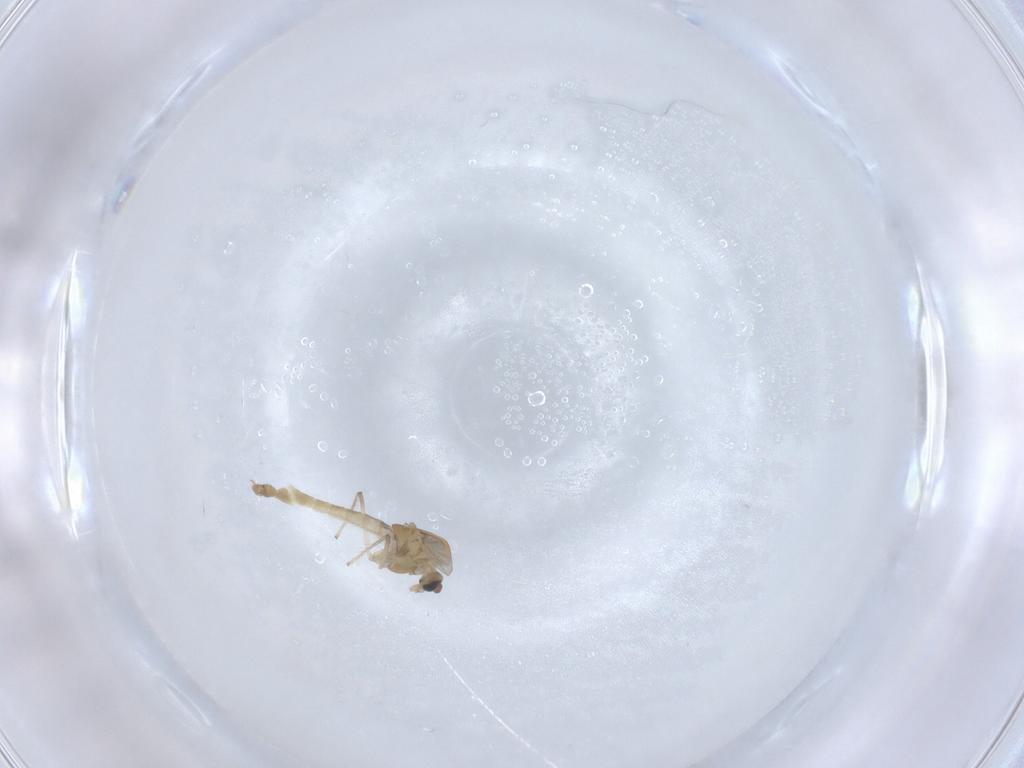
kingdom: Animalia
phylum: Arthropoda
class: Insecta
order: Diptera
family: Chironomidae
